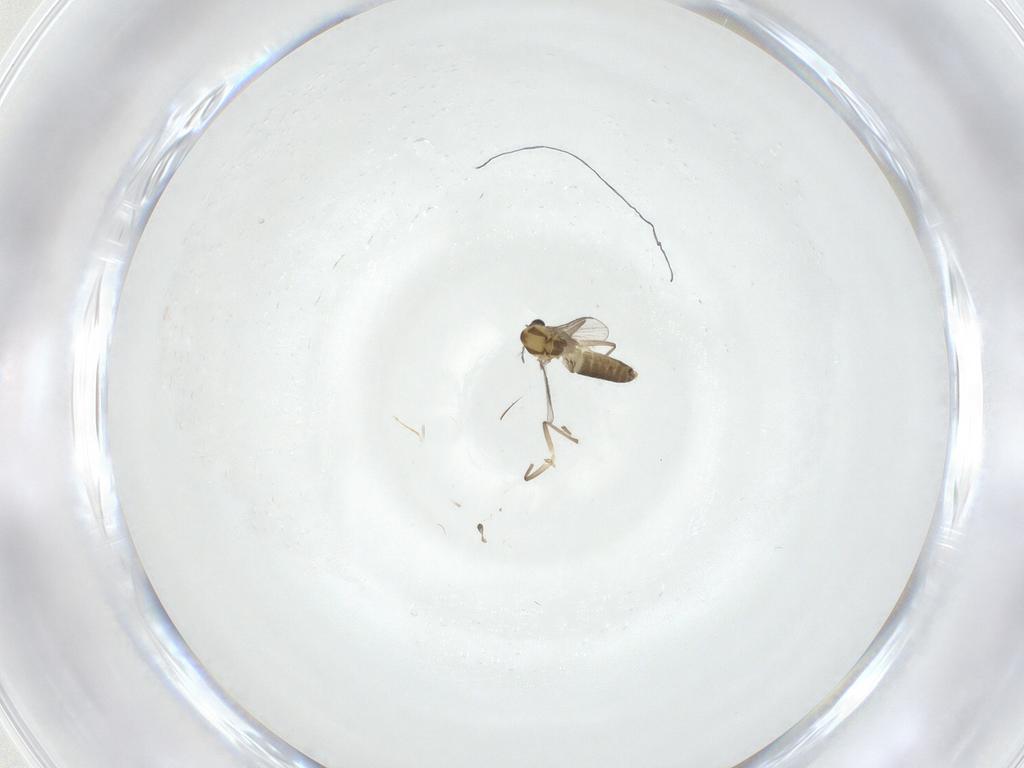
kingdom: Animalia
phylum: Arthropoda
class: Insecta
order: Diptera
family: Chironomidae
